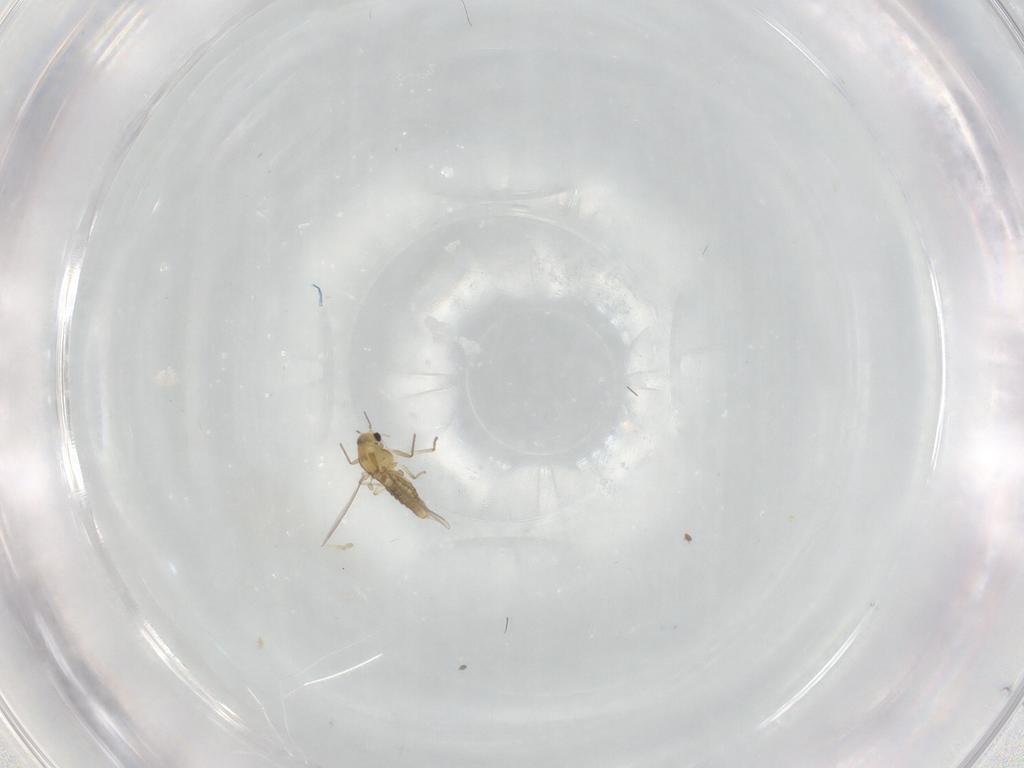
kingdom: Animalia
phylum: Arthropoda
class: Insecta
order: Diptera
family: Chironomidae
